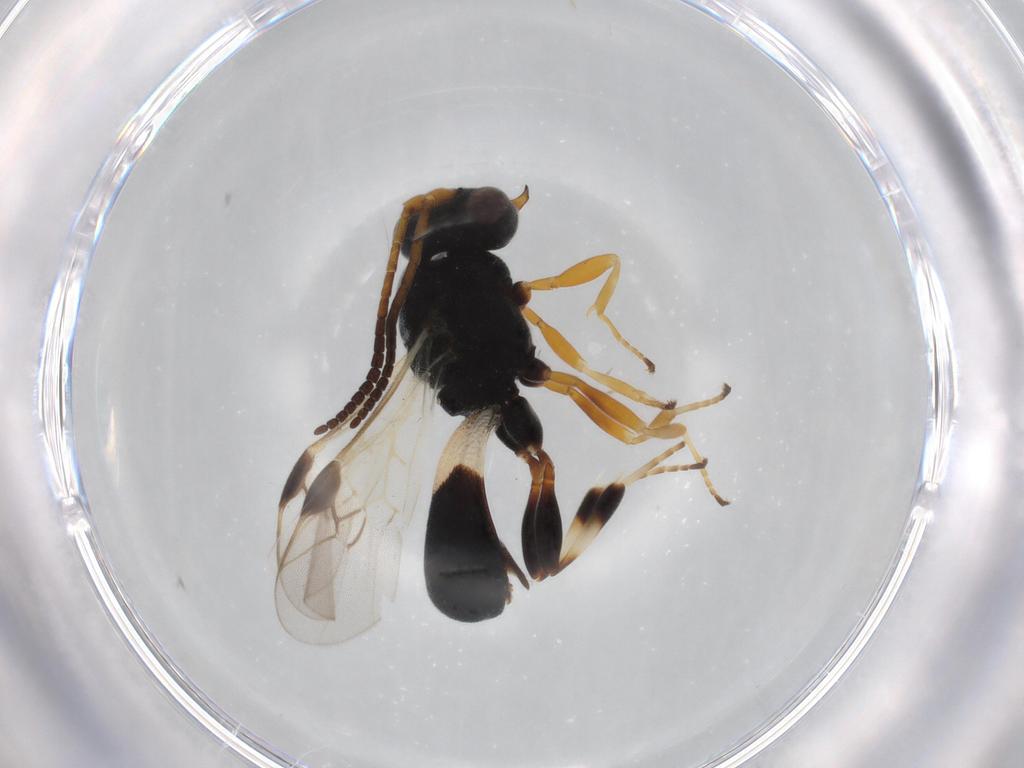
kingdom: Animalia
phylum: Arthropoda
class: Insecta
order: Hymenoptera
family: Braconidae
